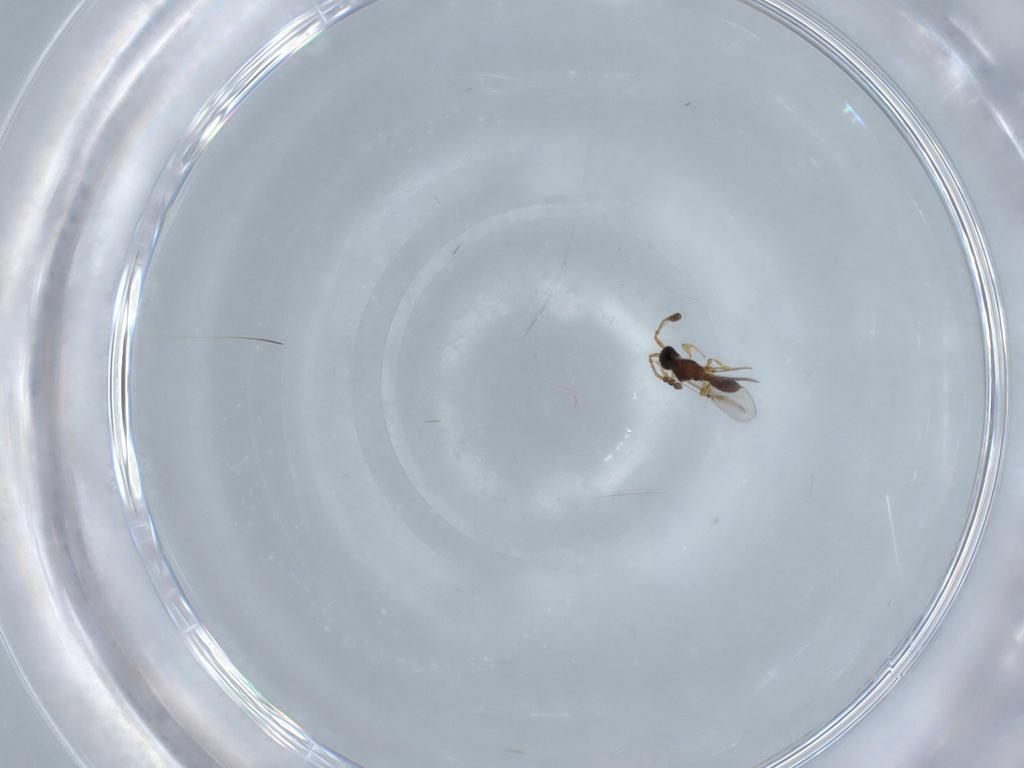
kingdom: Animalia
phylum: Arthropoda
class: Insecta
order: Hymenoptera
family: Diapriidae
